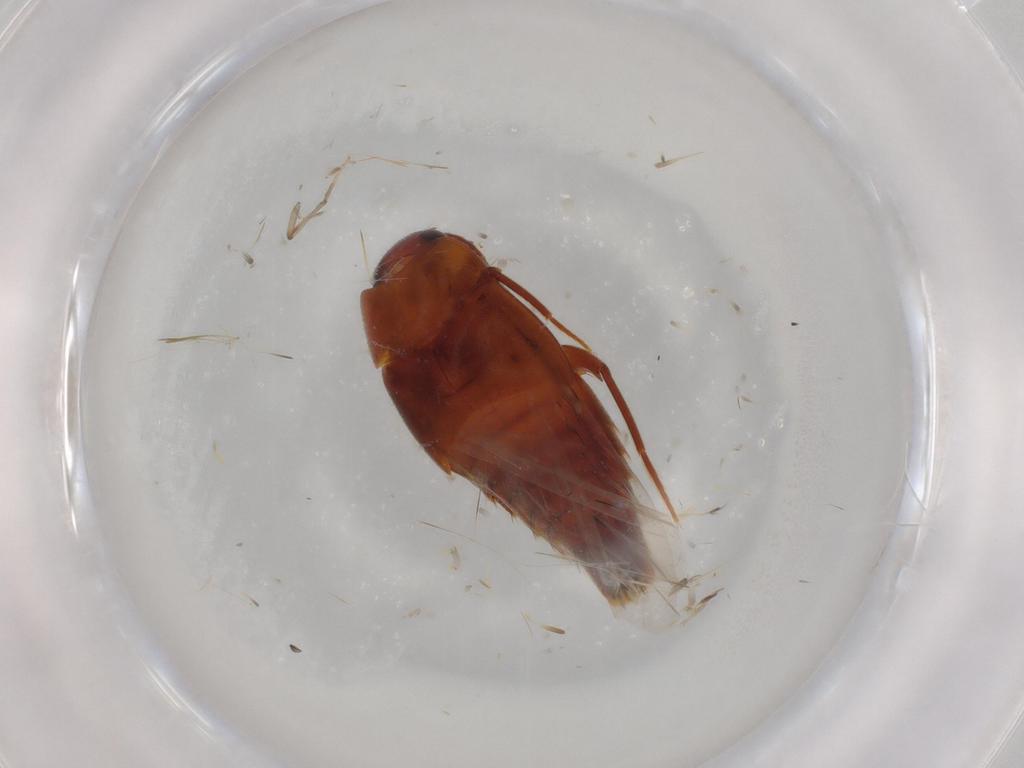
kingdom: Animalia
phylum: Arthropoda
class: Insecta
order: Coleoptera
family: Staphylinidae
